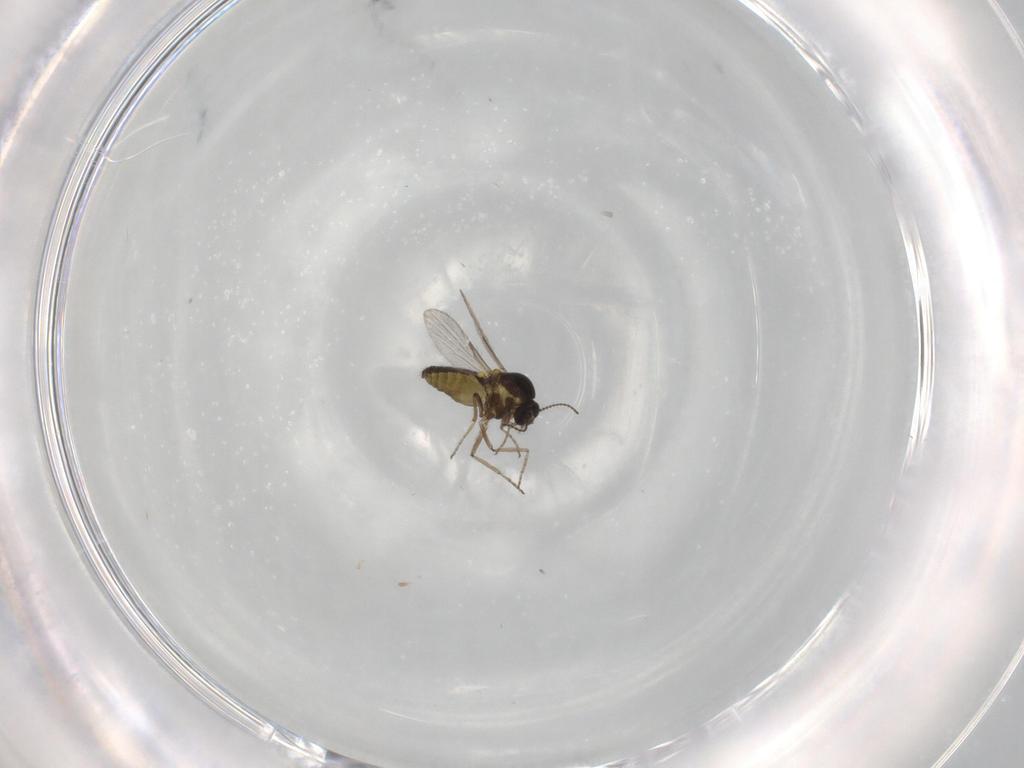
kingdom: Animalia
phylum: Arthropoda
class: Insecta
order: Diptera
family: Ceratopogonidae
